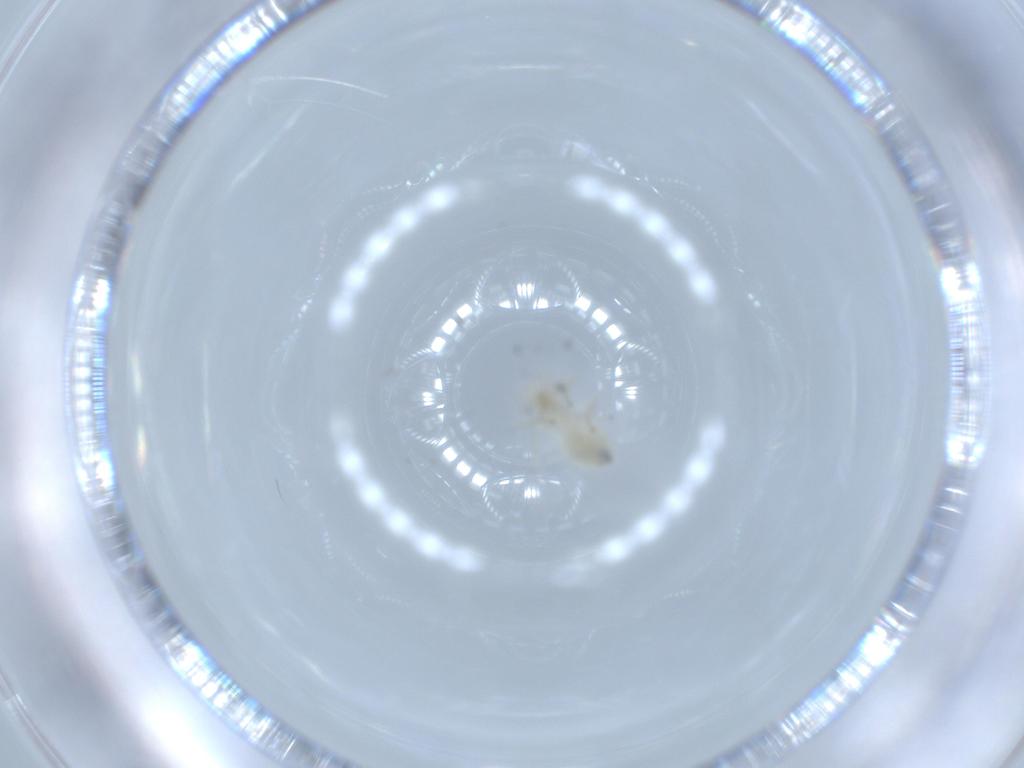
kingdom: Animalia
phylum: Arthropoda
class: Insecta
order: Diptera
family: Chironomidae
